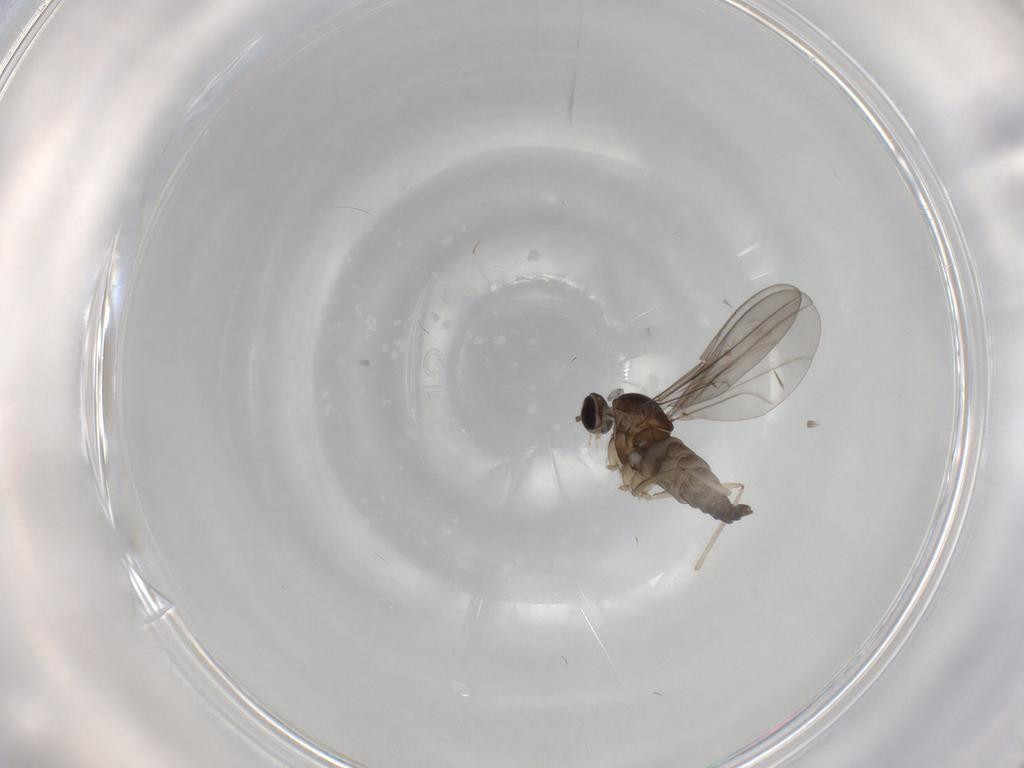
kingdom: Animalia
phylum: Arthropoda
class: Insecta
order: Diptera
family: Cecidomyiidae
